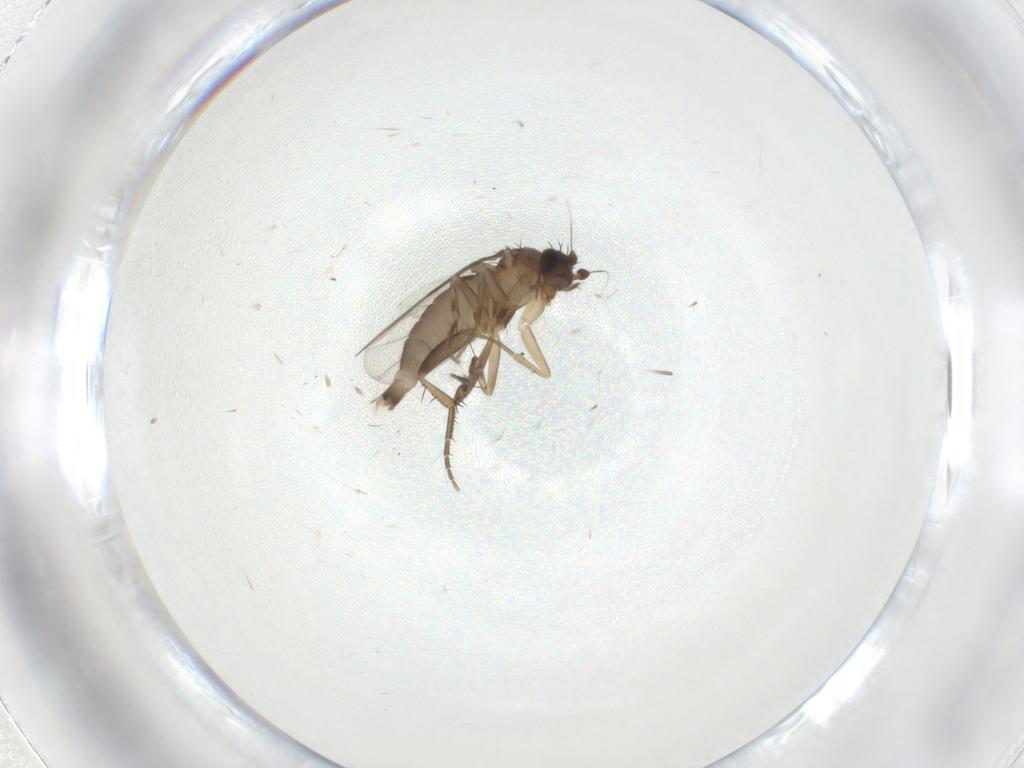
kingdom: Animalia
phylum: Arthropoda
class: Insecta
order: Diptera
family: Phoridae
